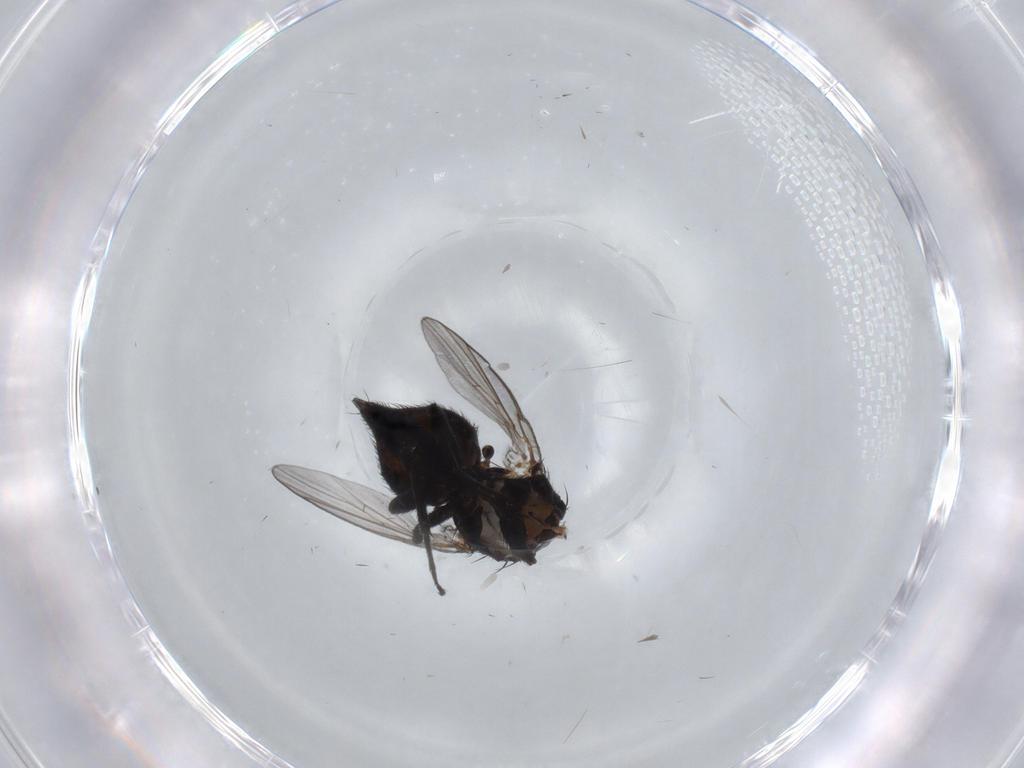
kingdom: Animalia
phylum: Arthropoda
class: Insecta
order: Diptera
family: Agromyzidae
